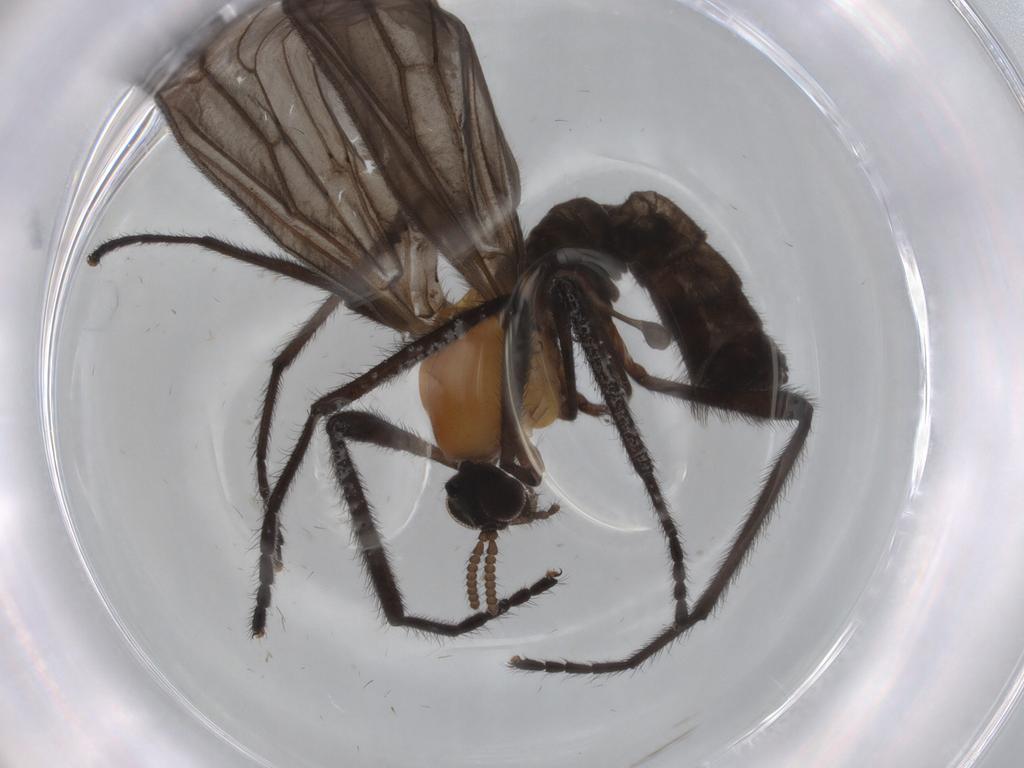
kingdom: Animalia
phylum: Arthropoda
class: Insecta
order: Diptera
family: Bibionidae
